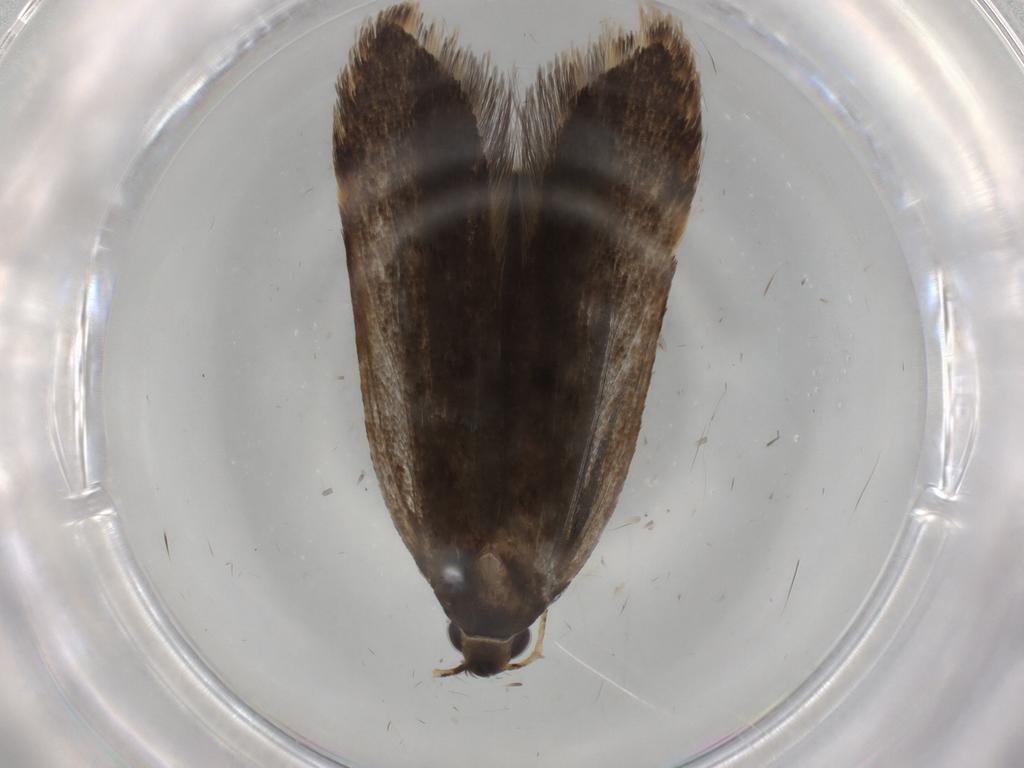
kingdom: Animalia
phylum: Arthropoda
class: Insecta
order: Lepidoptera
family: Gelechiidae
